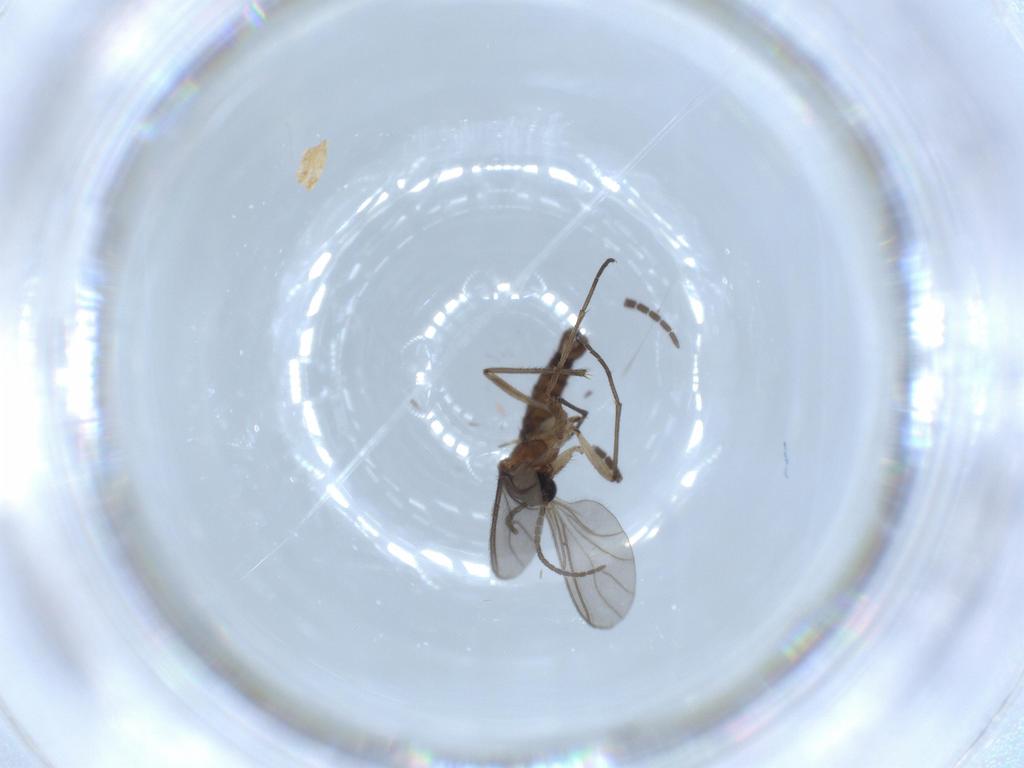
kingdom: Animalia
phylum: Arthropoda
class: Insecta
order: Diptera
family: Sciaridae
